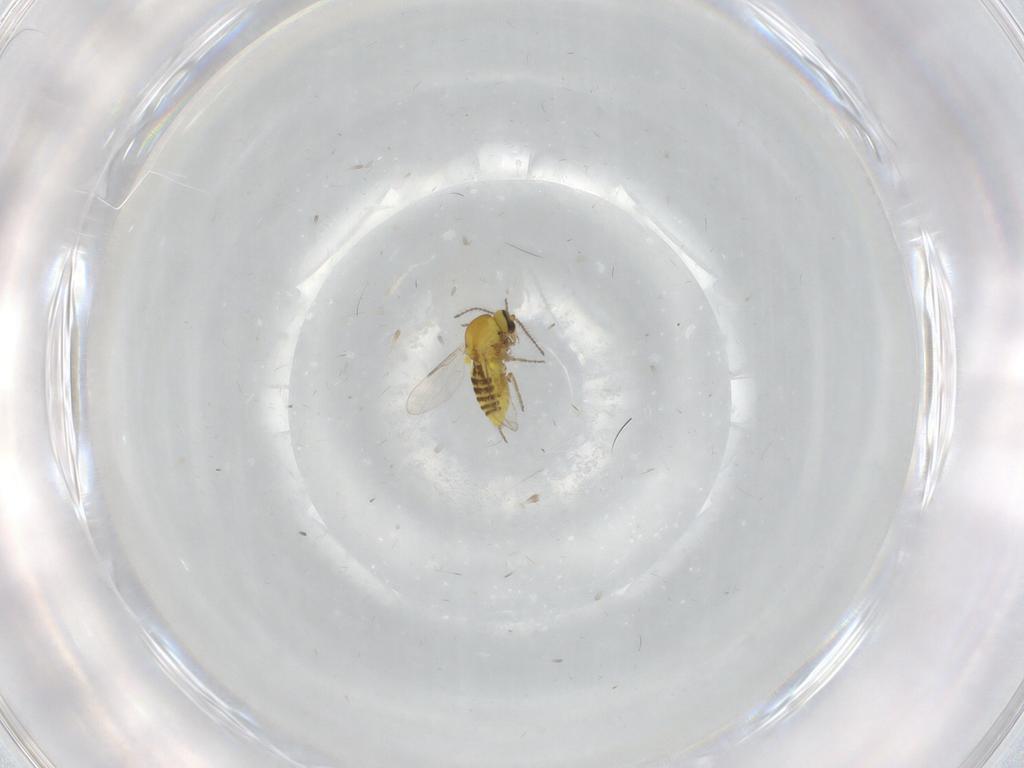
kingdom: Animalia
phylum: Arthropoda
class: Insecta
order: Diptera
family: Ceratopogonidae
